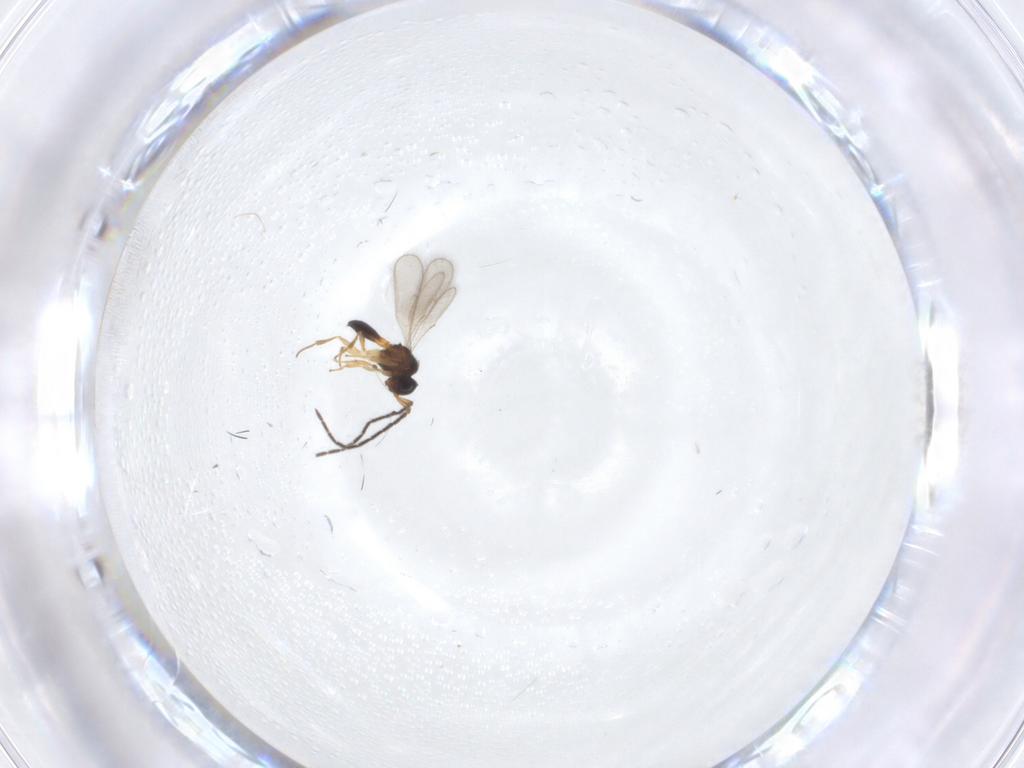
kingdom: Animalia
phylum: Arthropoda
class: Insecta
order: Hymenoptera
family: Scelionidae
